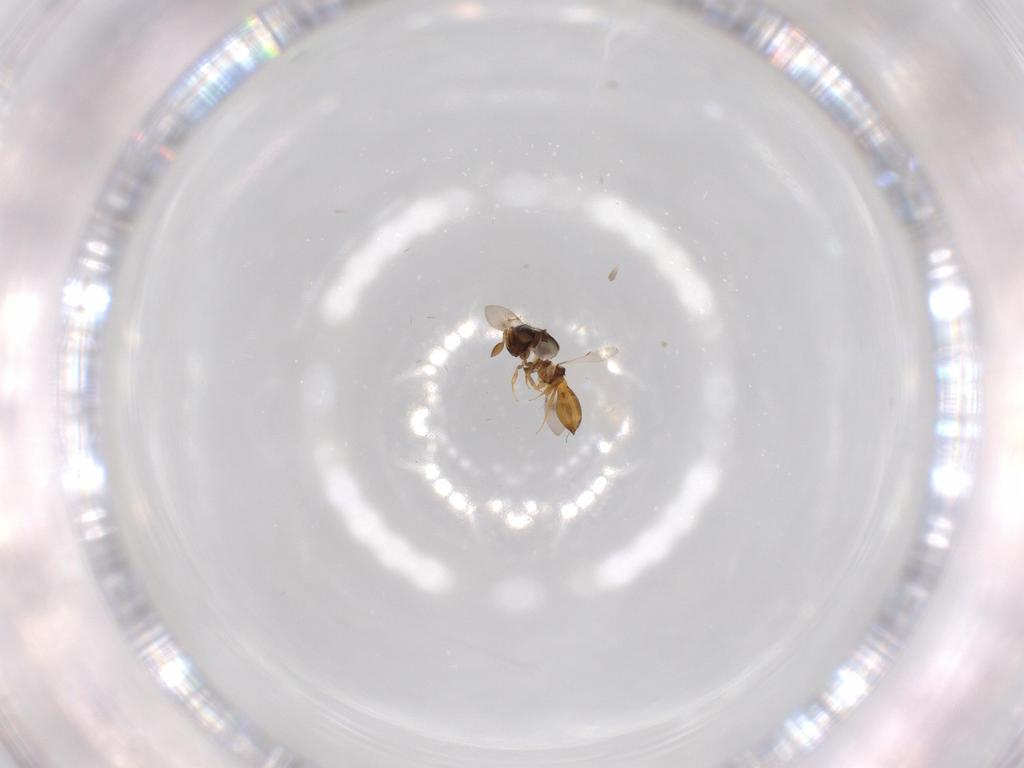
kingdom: Animalia
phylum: Arthropoda
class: Insecta
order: Hymenoptera
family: Scelionidae
